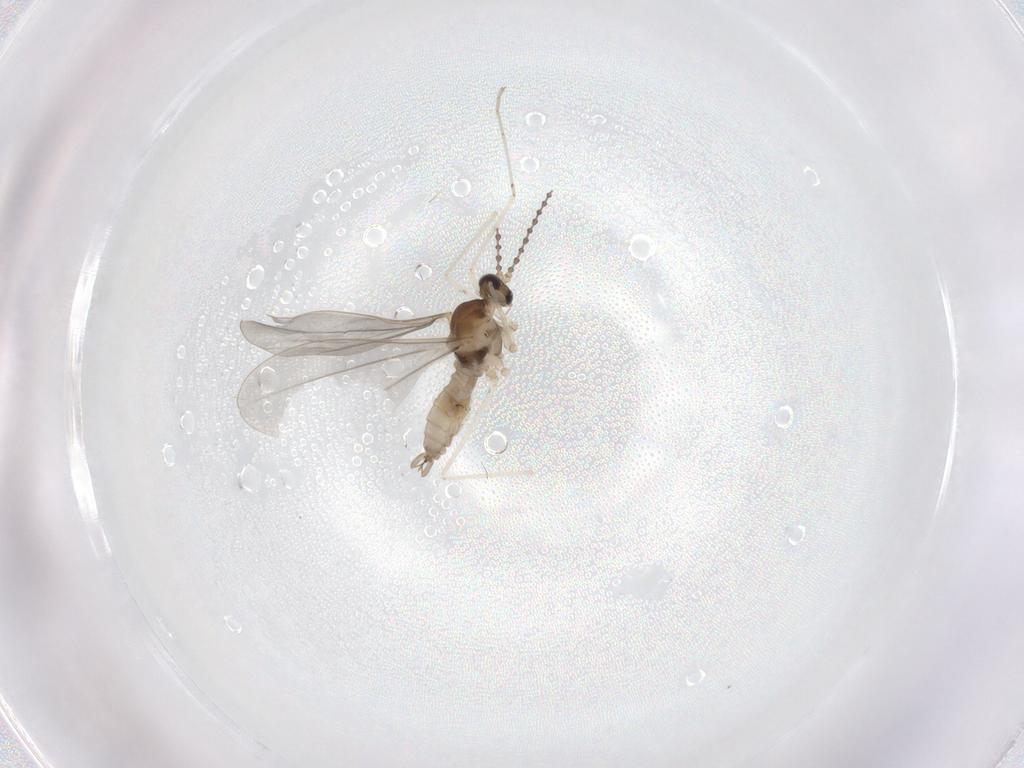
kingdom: Animalia
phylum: Arthropoda
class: Insecta
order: Diptera
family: Cecidomyiidae
